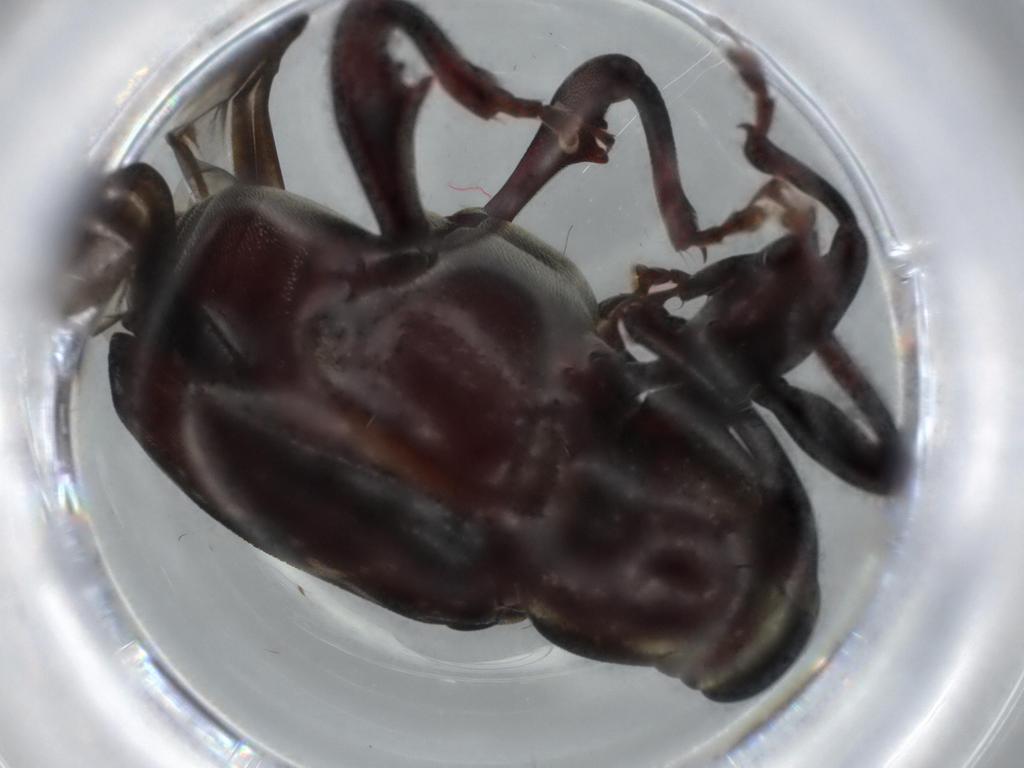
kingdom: Animalia
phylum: Arthropoda
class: Insecta
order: Coleoptera
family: Curculionidae
